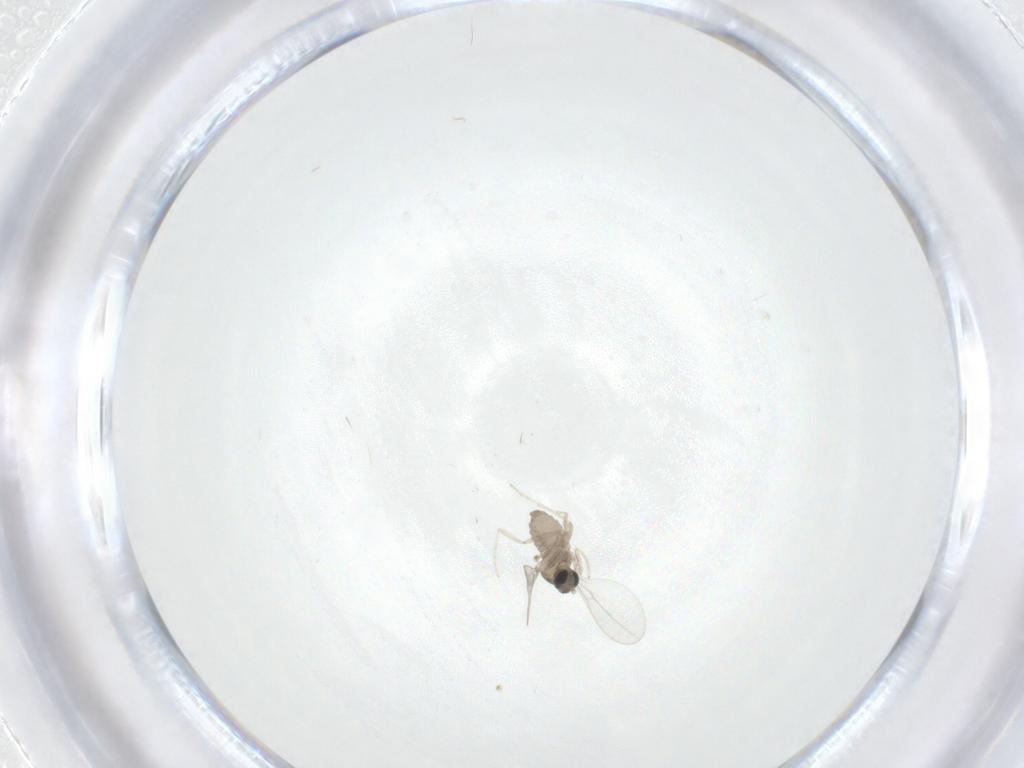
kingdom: Animalia
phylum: Arthropoda
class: Insecta
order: Diptera
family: Cecidomyiidae
